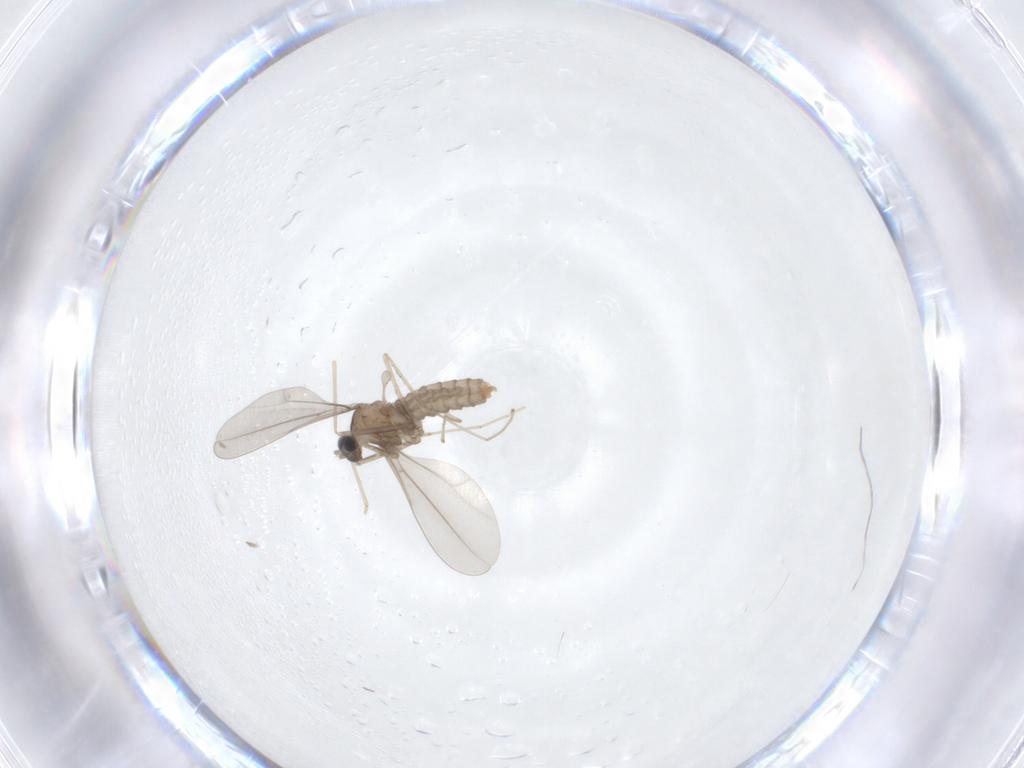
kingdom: Animalia
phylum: Arthropoda
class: Insecta
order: Diptera
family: Cecidomyiidae
